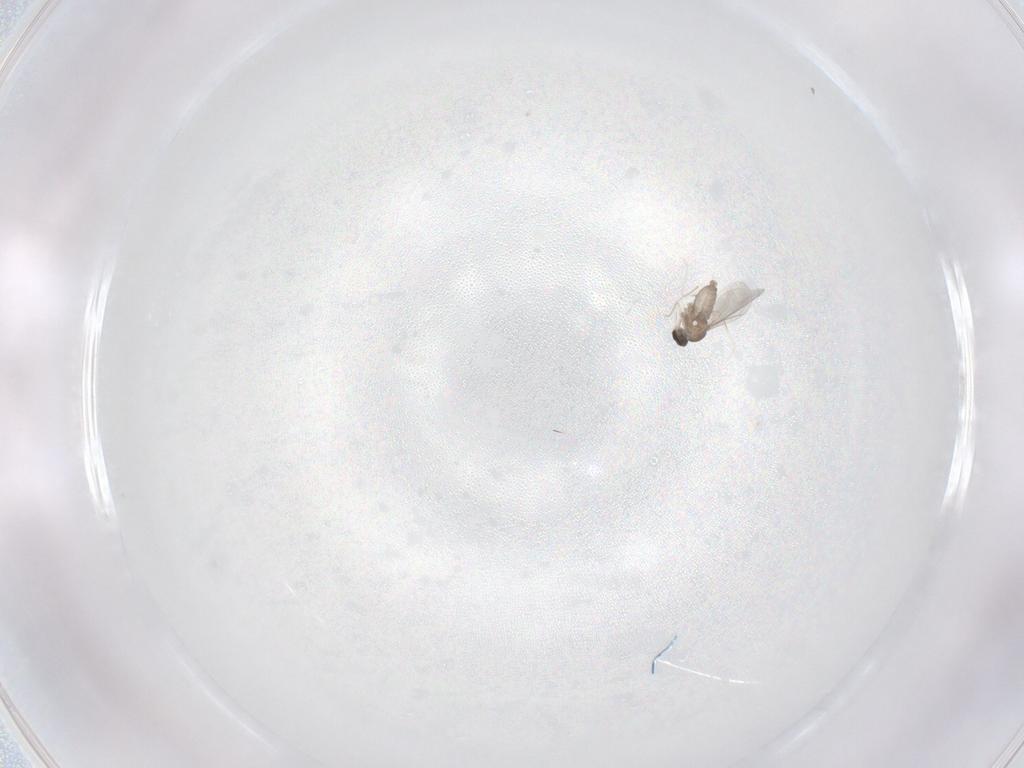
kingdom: Animalia
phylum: Arthropoda
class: Insecta
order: Diptera
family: Cecidomyiidae
